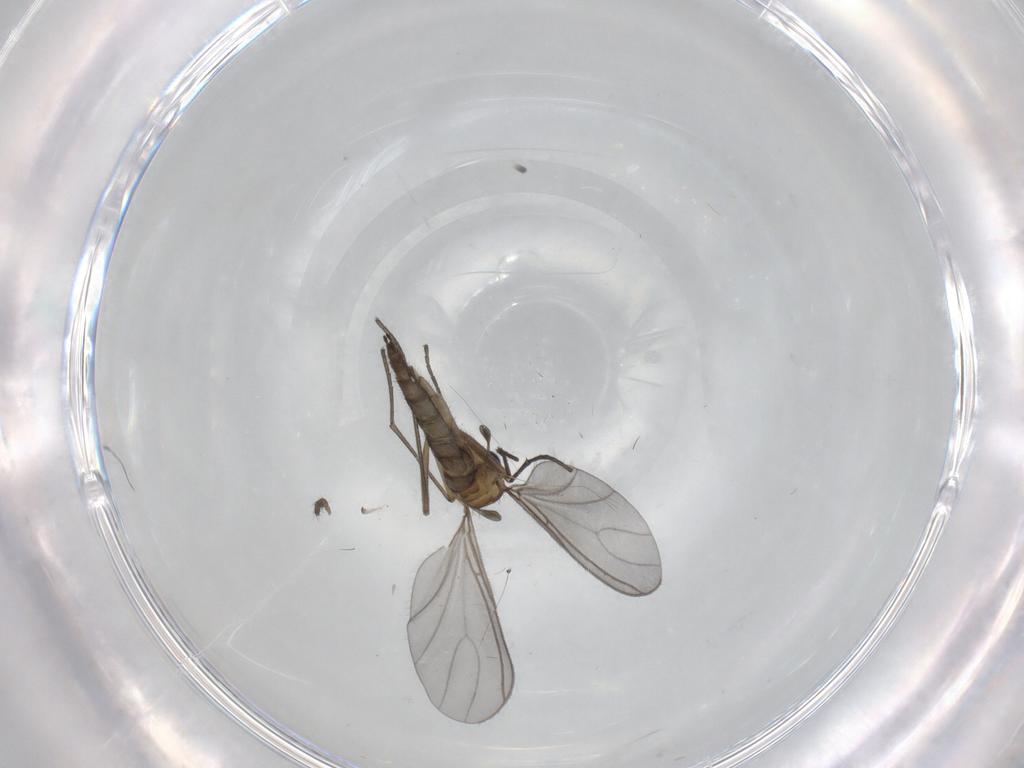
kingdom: Animalia
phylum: Arthropoda
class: Insecta
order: Diptera
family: Sciaridae
